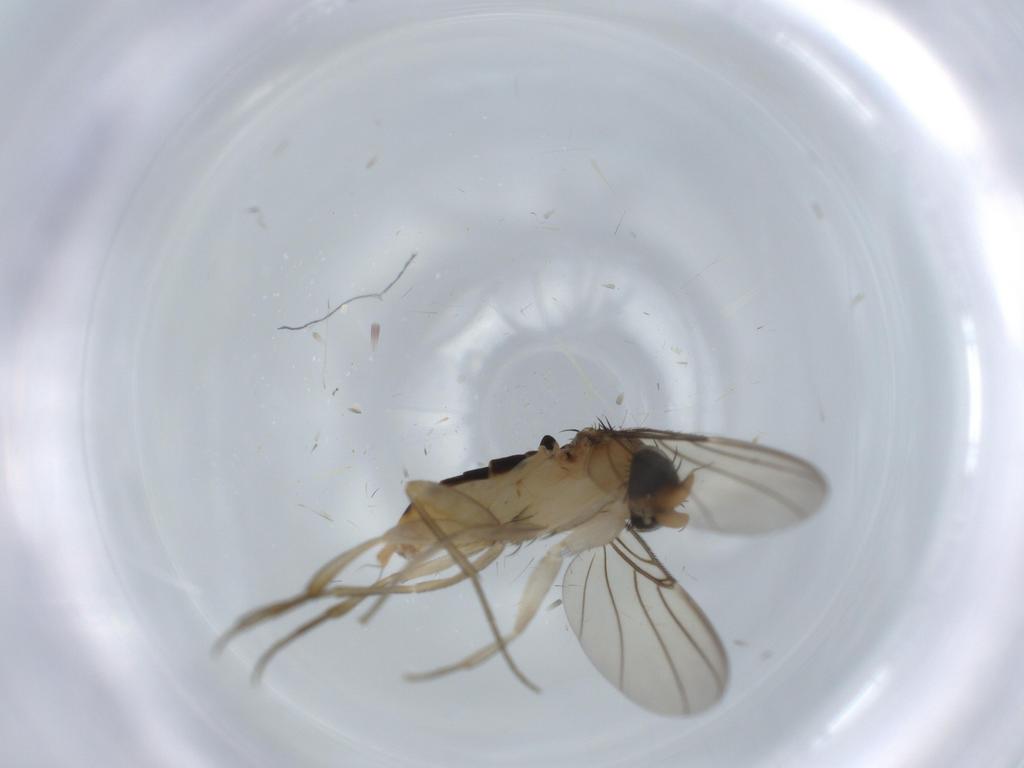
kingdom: Animalia
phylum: Arthropoda
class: Insecta
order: Diptera
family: Phoridae
